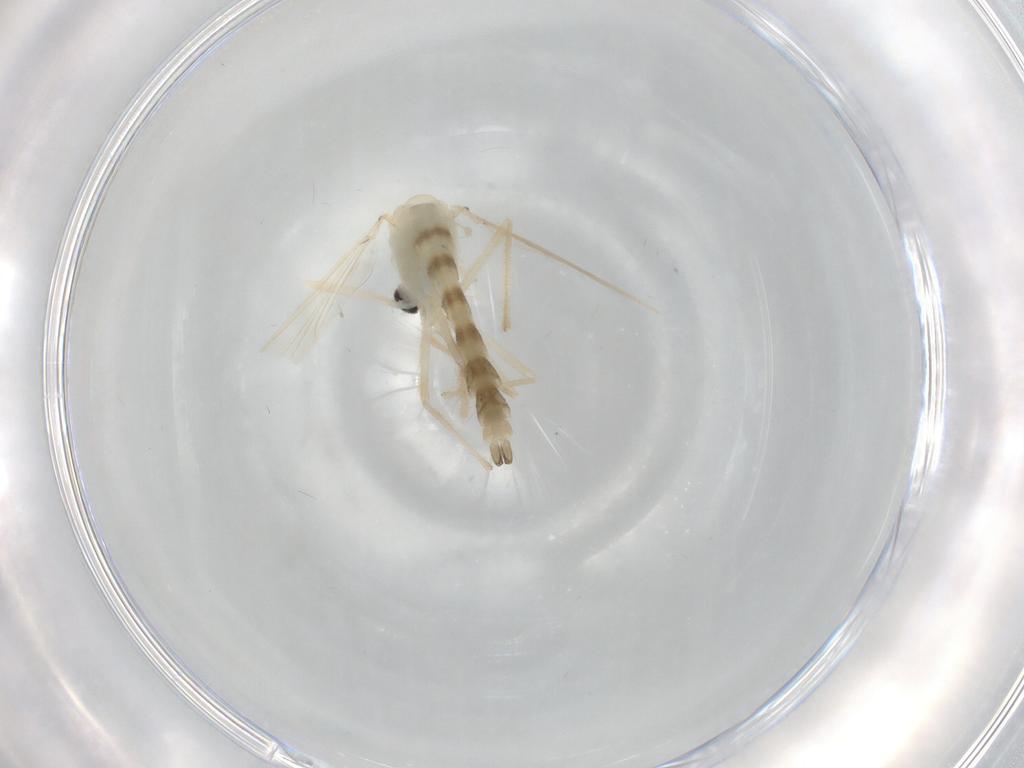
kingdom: Animalia
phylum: Arthropoda
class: Insecta
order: Diptera
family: Chironomidae
